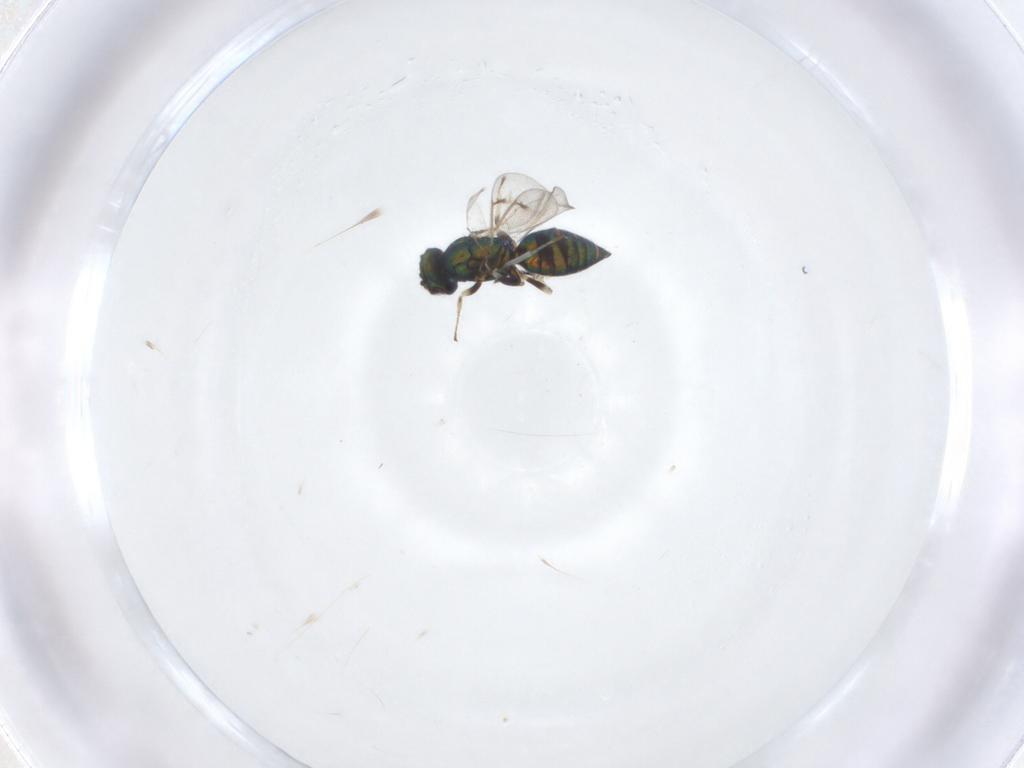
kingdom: Animalia
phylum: Arthropoda
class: Insecta
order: Hymenoptera
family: Eulophidae
